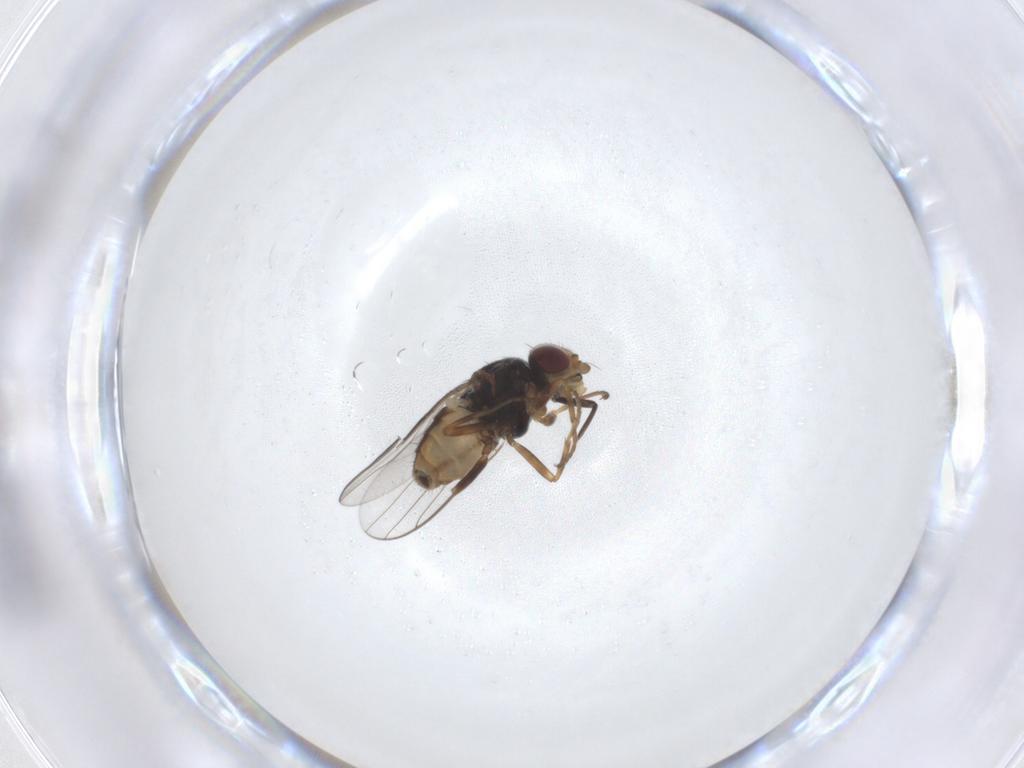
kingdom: Animalia
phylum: Arthropoda
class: Insecta
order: Diptera
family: Chloropidae
